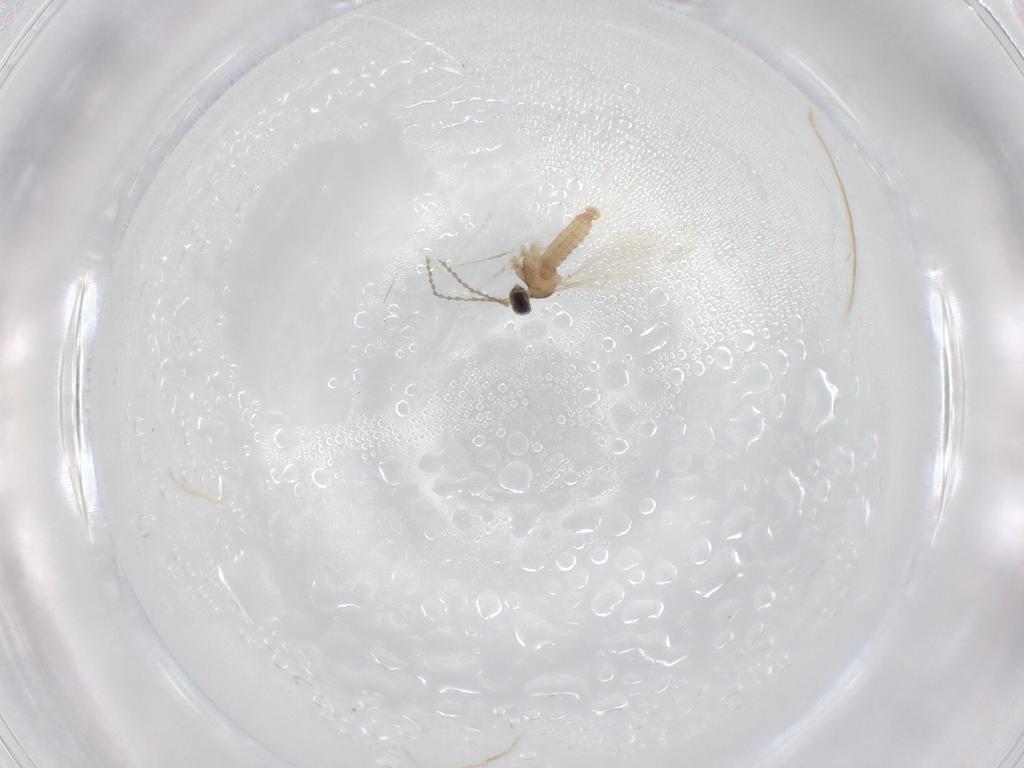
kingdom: Animalia
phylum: Arthropoda
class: Insecta
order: Diptera
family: Cecidomyiidae
